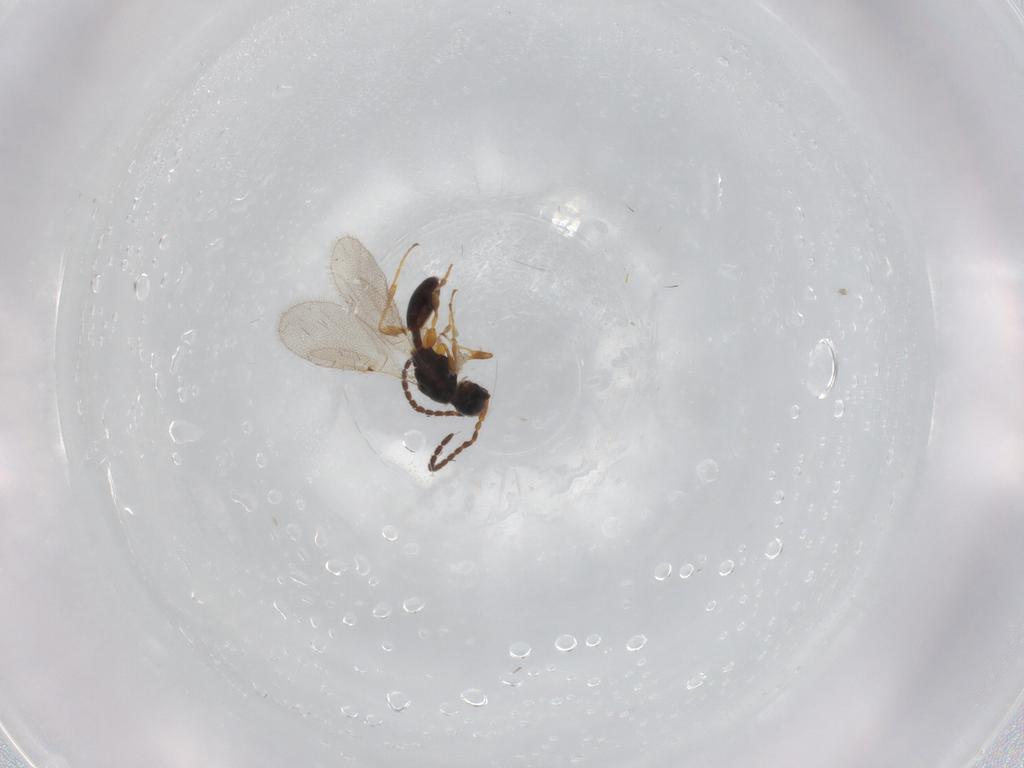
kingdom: Animalia
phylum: Arthropoda
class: Insecta
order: Hymenoptera
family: Diapriidae
